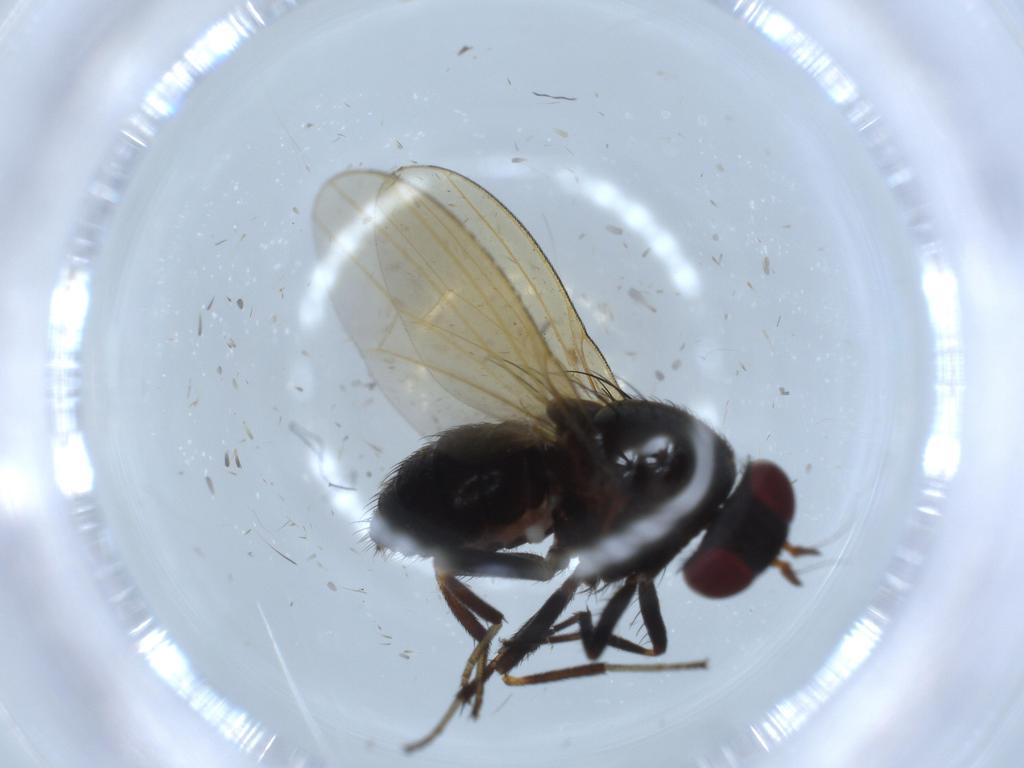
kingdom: Animalia
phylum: Arthropoda
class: Insecta
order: Diptera
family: Lauxaniidae
